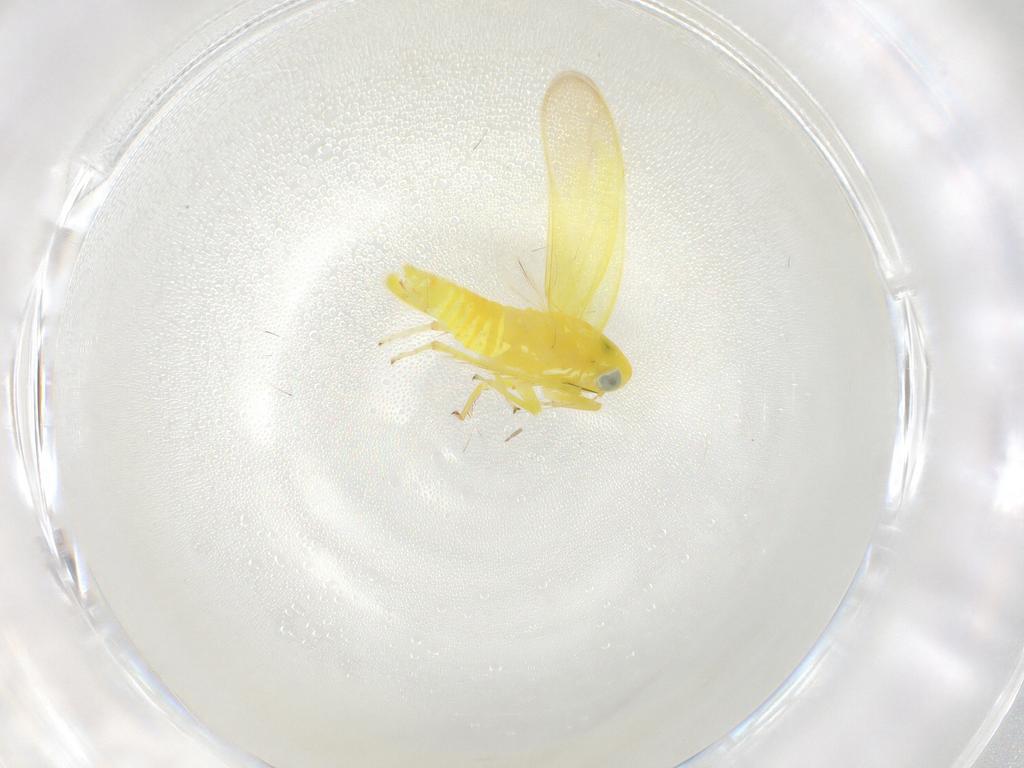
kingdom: Animalia
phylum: Arthropoda
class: Insecta
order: Hemiptera
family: Cicadellidae
